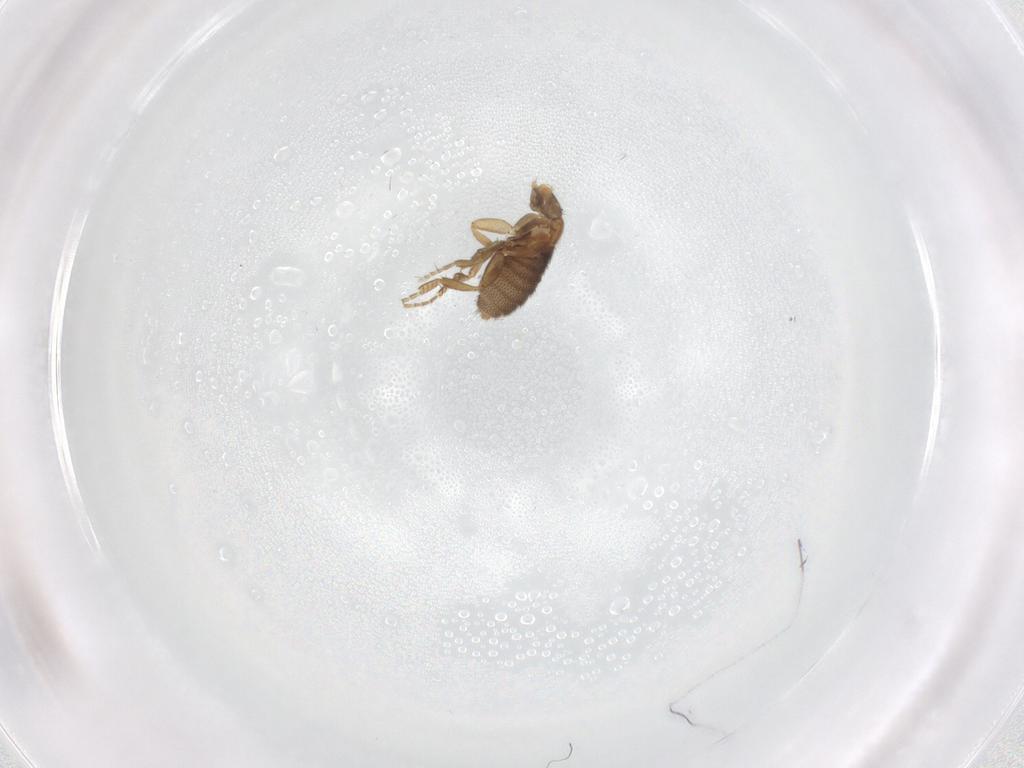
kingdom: Animalia
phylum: Arthropoda
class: Insecta
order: Diptera
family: Phoridae
